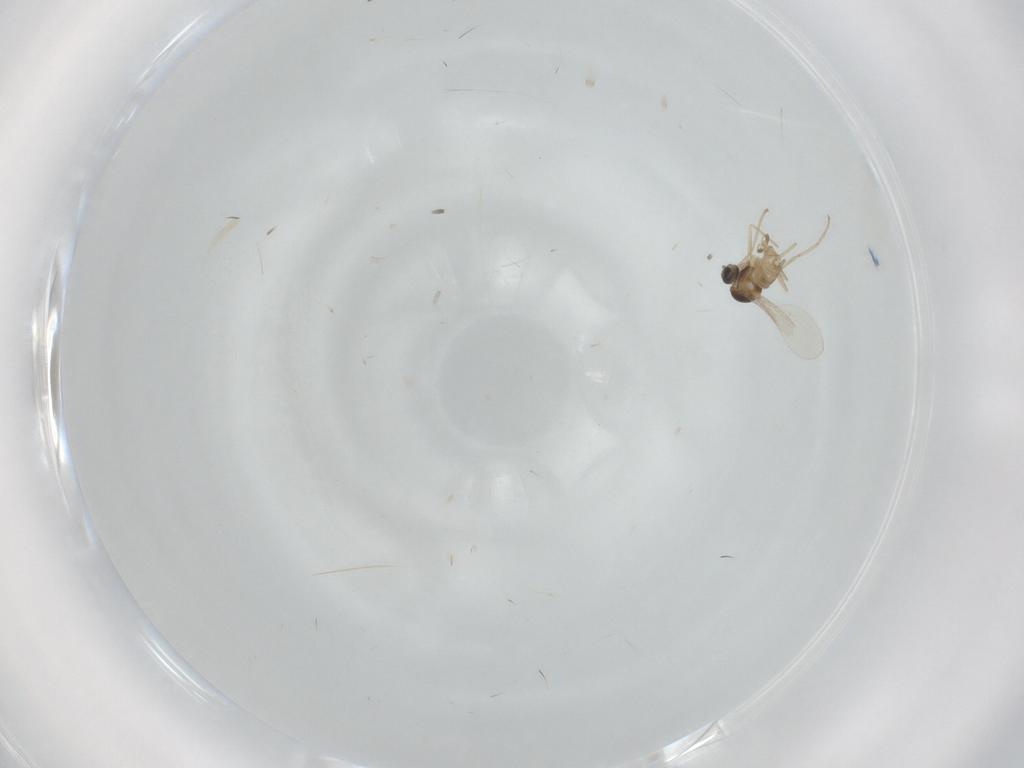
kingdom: Animalia
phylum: Arthropoda
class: Insecta
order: Diptera
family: Cecidomyiidae
